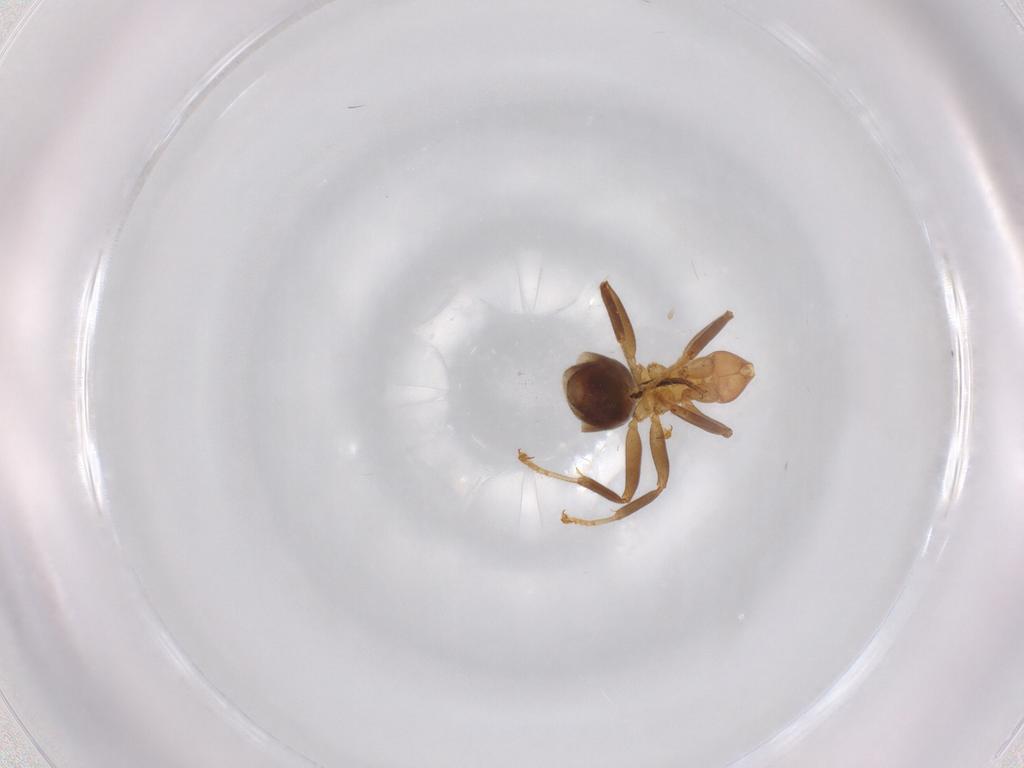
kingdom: Animalia
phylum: Arthropoda
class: Insecta
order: Hymenoptera
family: Formicidae
